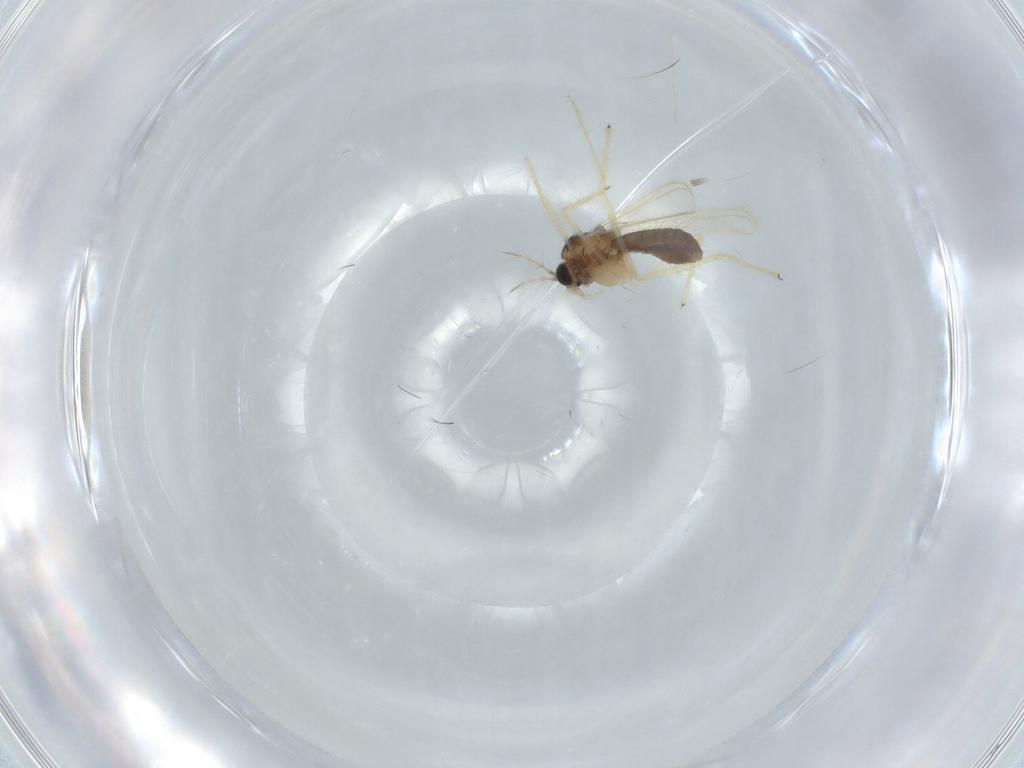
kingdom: Animalia
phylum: Arthropoda
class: Insecta
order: Diptera
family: Chironomidae
